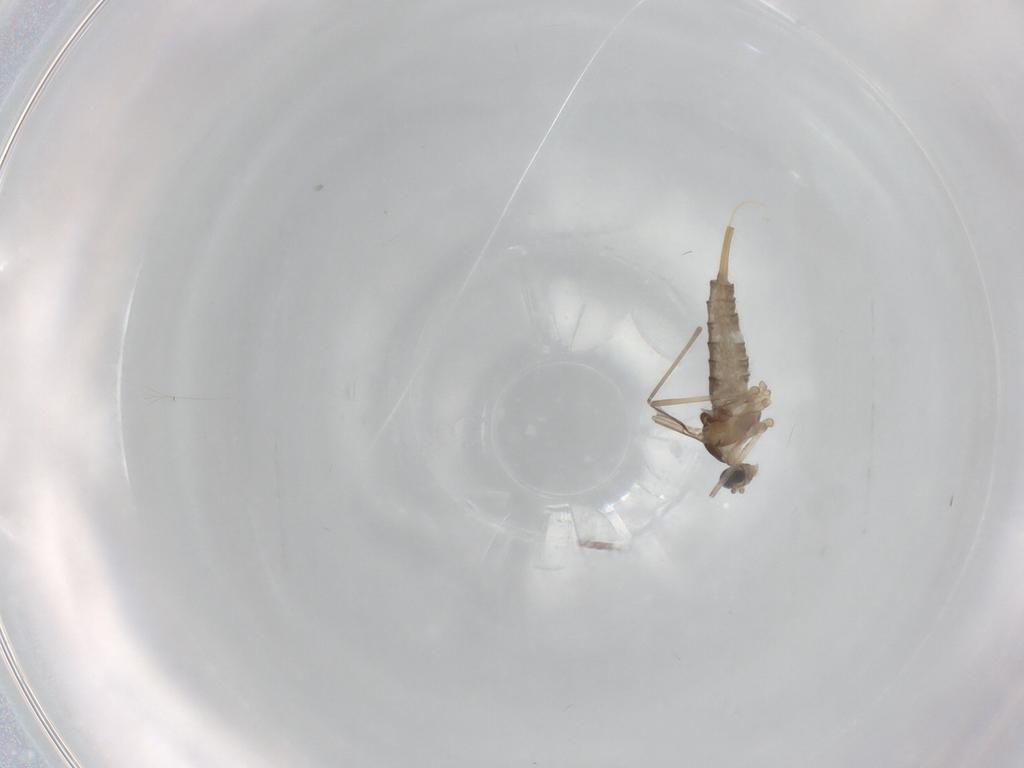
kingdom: Animalia
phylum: Arthropoda
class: Insecta
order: Diptera
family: Cecidomyiidae
